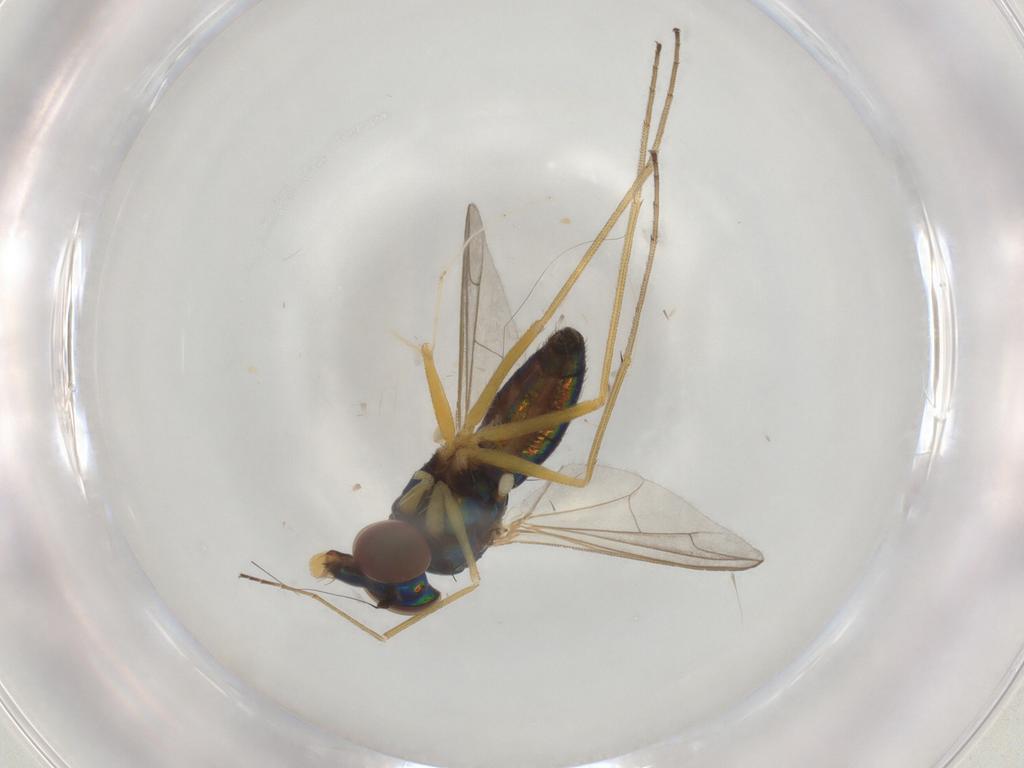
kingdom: Animalia
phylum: Arthropoda
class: Insecta
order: Diptera
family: Dolichopodidae
